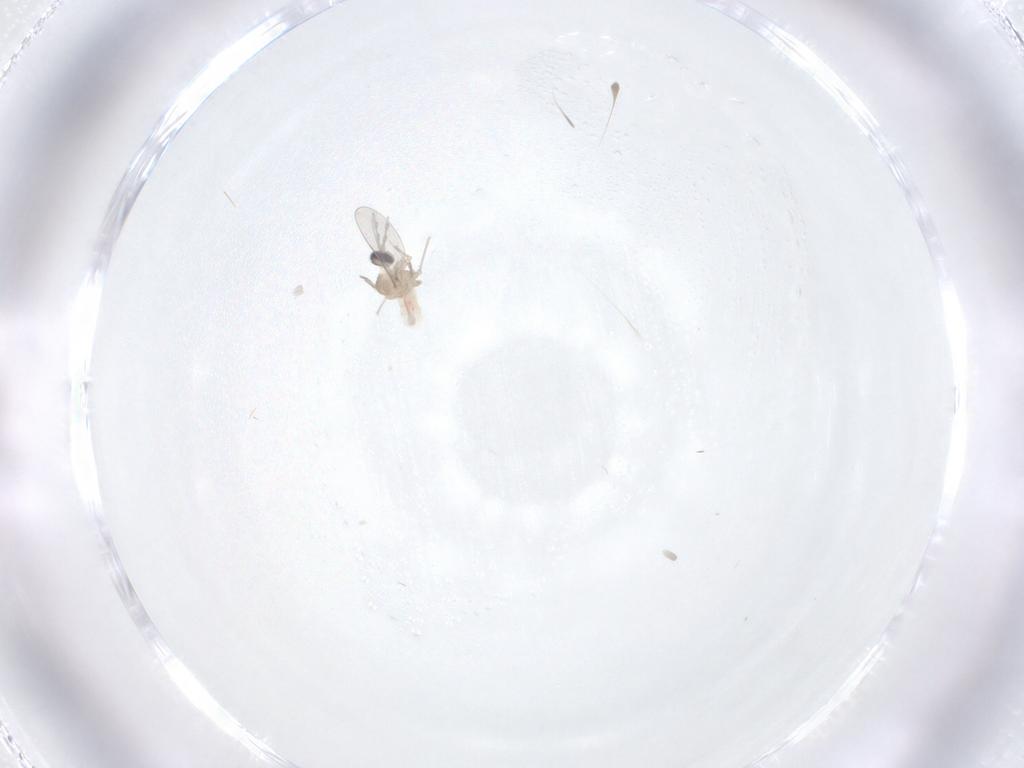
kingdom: Animalia
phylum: Arthropoda
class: Insecta
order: Diptera
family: Cecidomyiidae
